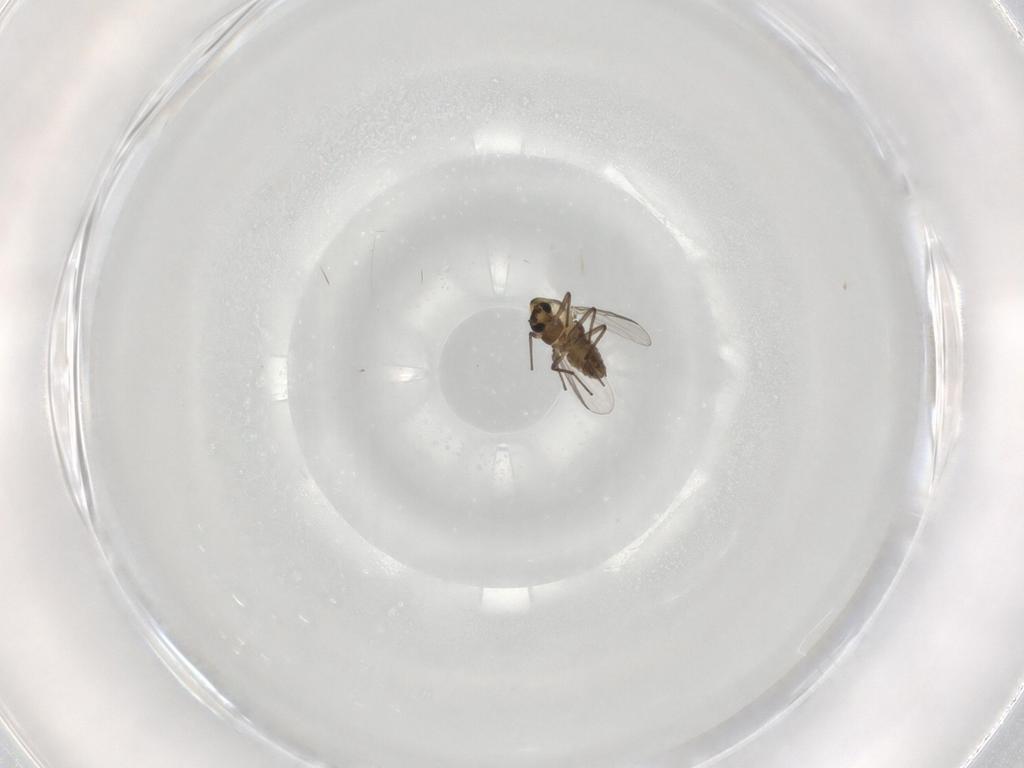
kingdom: Animalia
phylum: Arthropoda
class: Insecta
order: Diptera
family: Chironomidae
